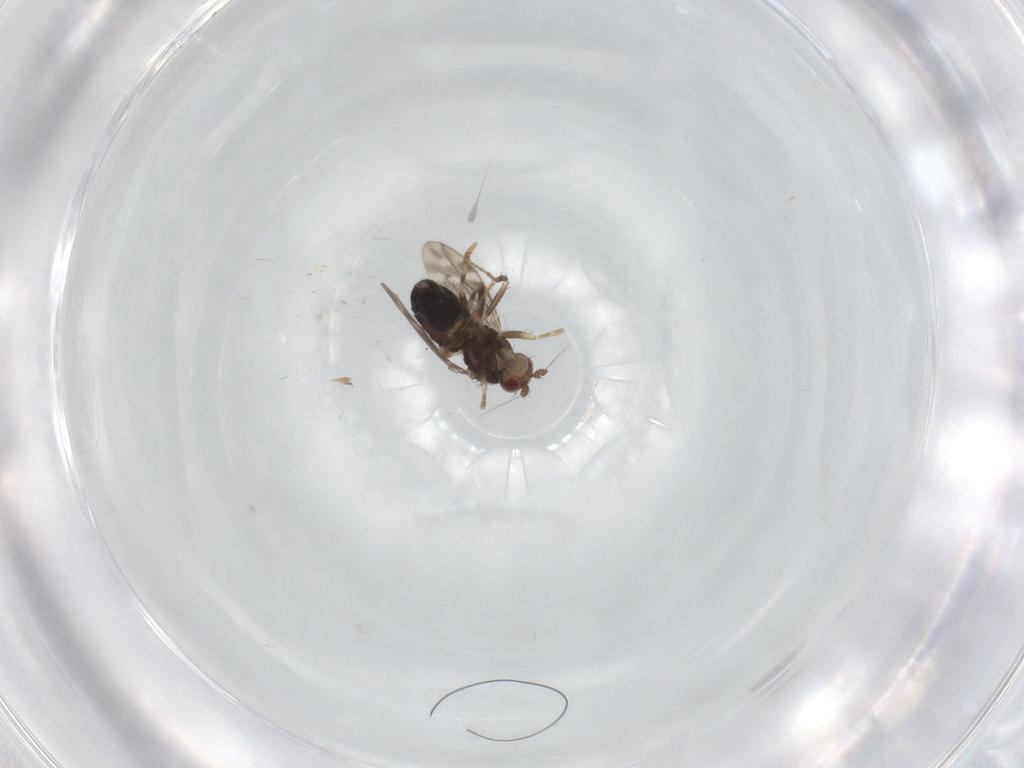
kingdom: Animalia
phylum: Arthropoda
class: Insecta
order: Diptera
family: Sphaeroceridae
